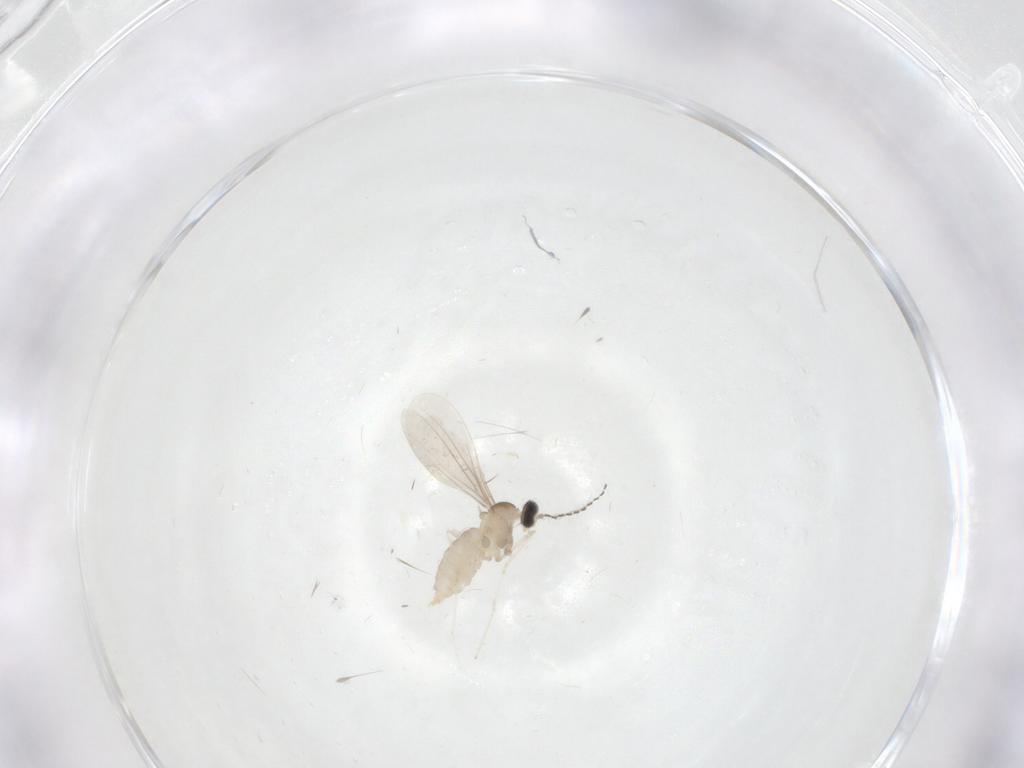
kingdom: Animalia
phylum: Arthropoda
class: Insecta
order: Diptera
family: Cecidomyiidae
